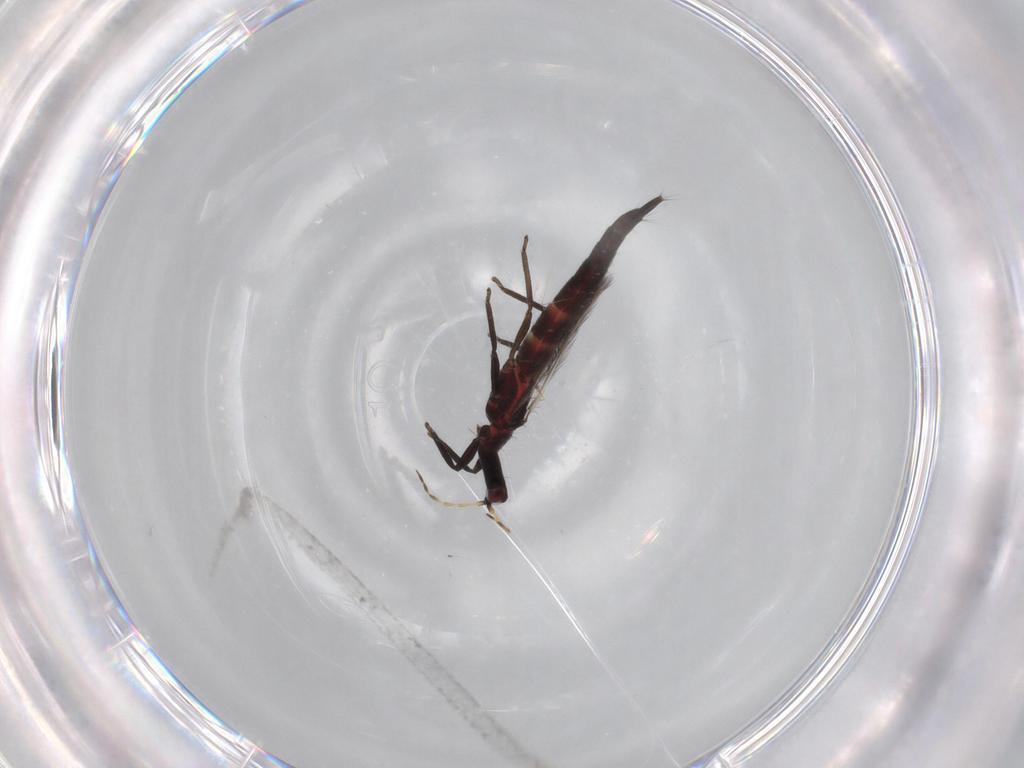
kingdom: Animalia
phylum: Arthropoda
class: Insecta
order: Thysanoptera
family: Phlaeothripidae
